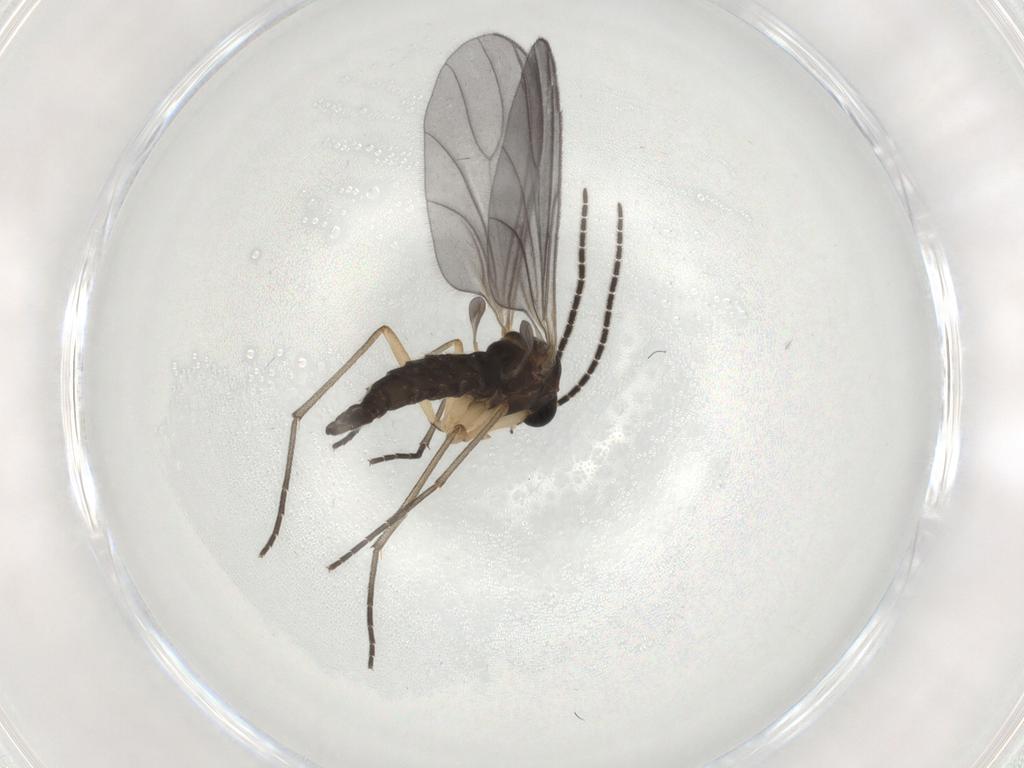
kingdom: Animalia
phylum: Arthropoda
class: Insecta
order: Diptera
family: Sciaridae
